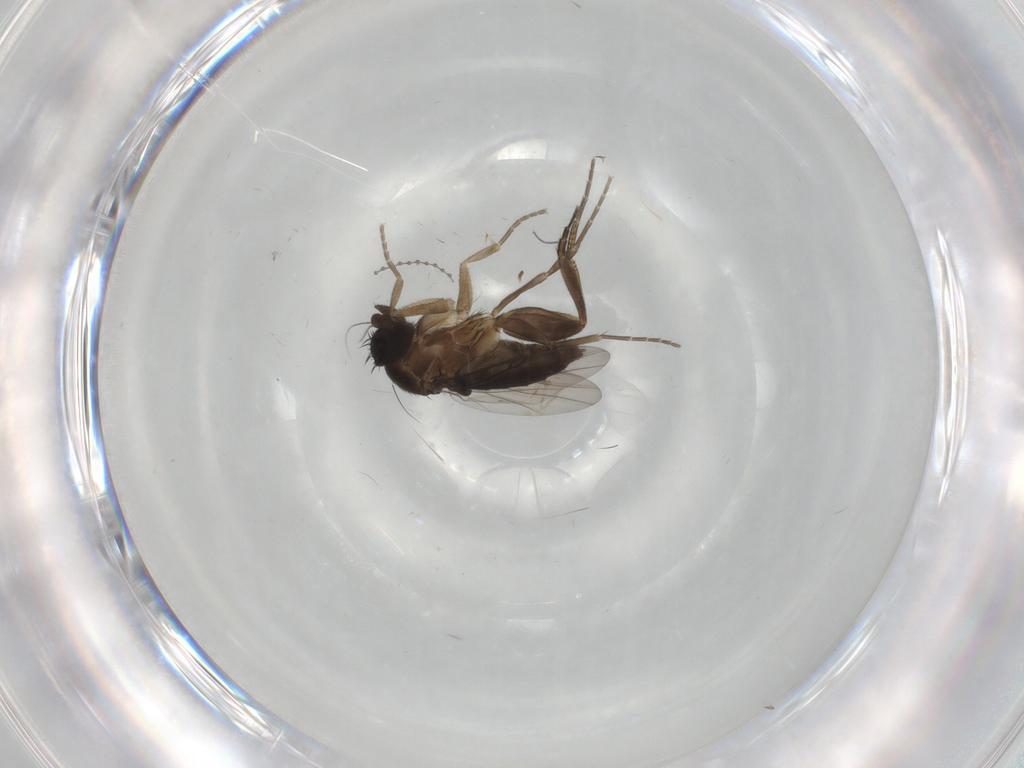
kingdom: Animalia
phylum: Arthropoda
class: Insecta
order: Diptera
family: Phoridae
